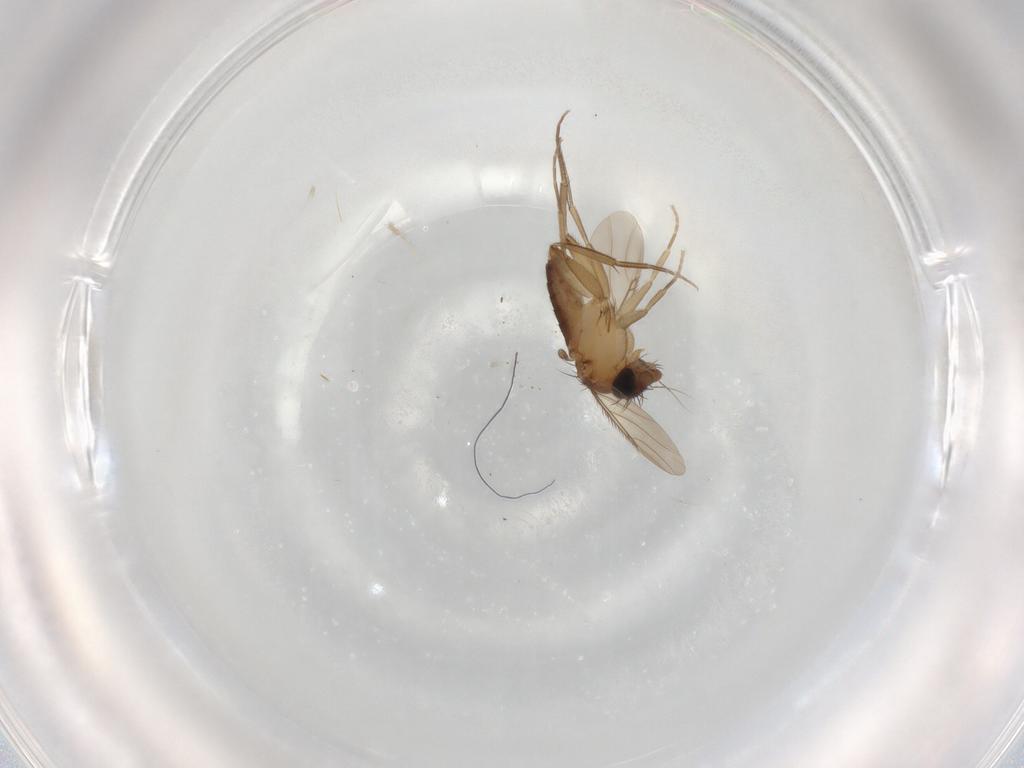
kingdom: Animalia
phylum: Arthropoda
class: Insecta
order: Diptera
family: Phoridae
